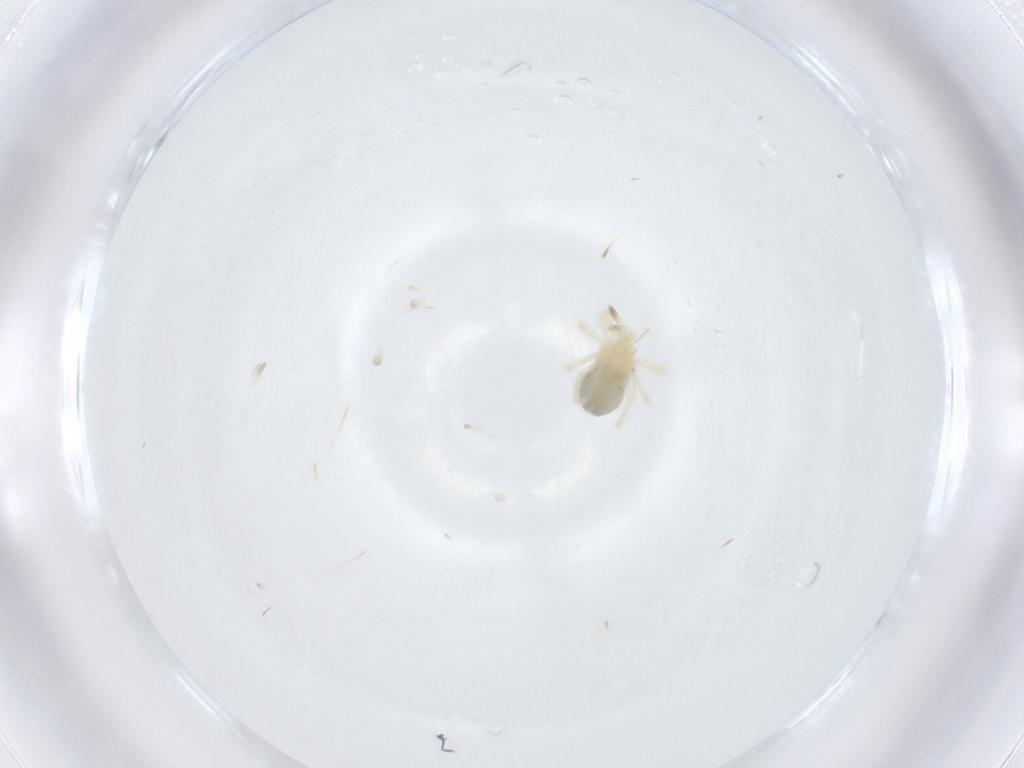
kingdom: Animalia
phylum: Arthropoda
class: Arachnida
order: Trombidiformes
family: Anystidae
